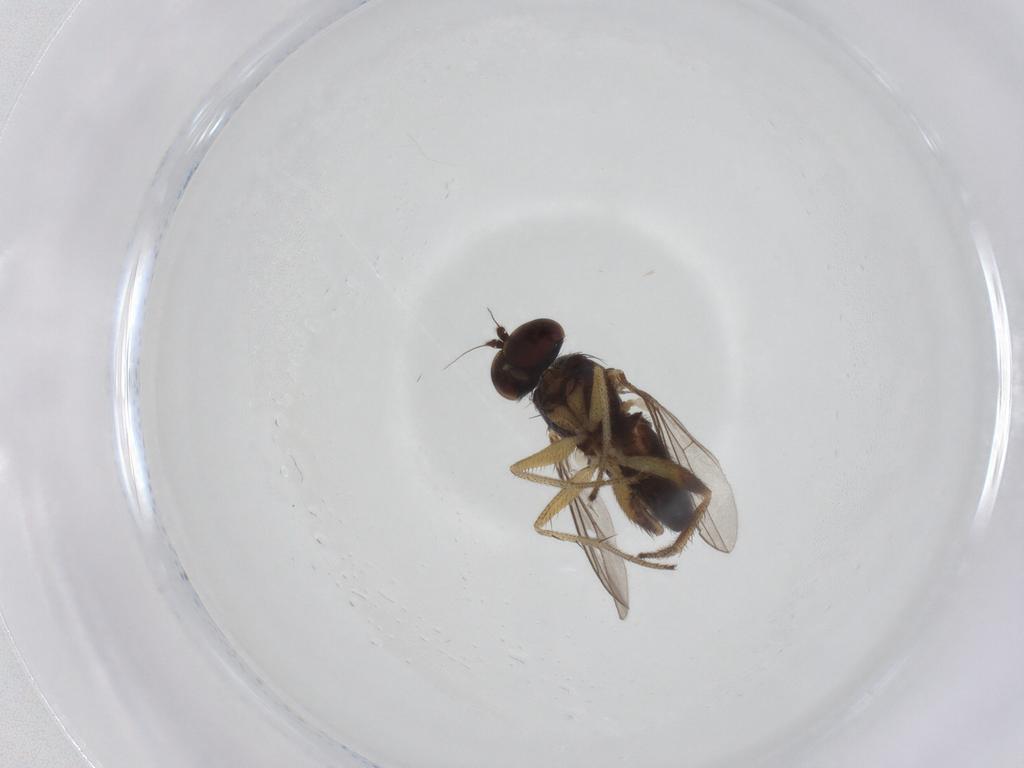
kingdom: Animalia
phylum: Arthropoda
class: Insecta
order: Diptera
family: Dolichopodidae
